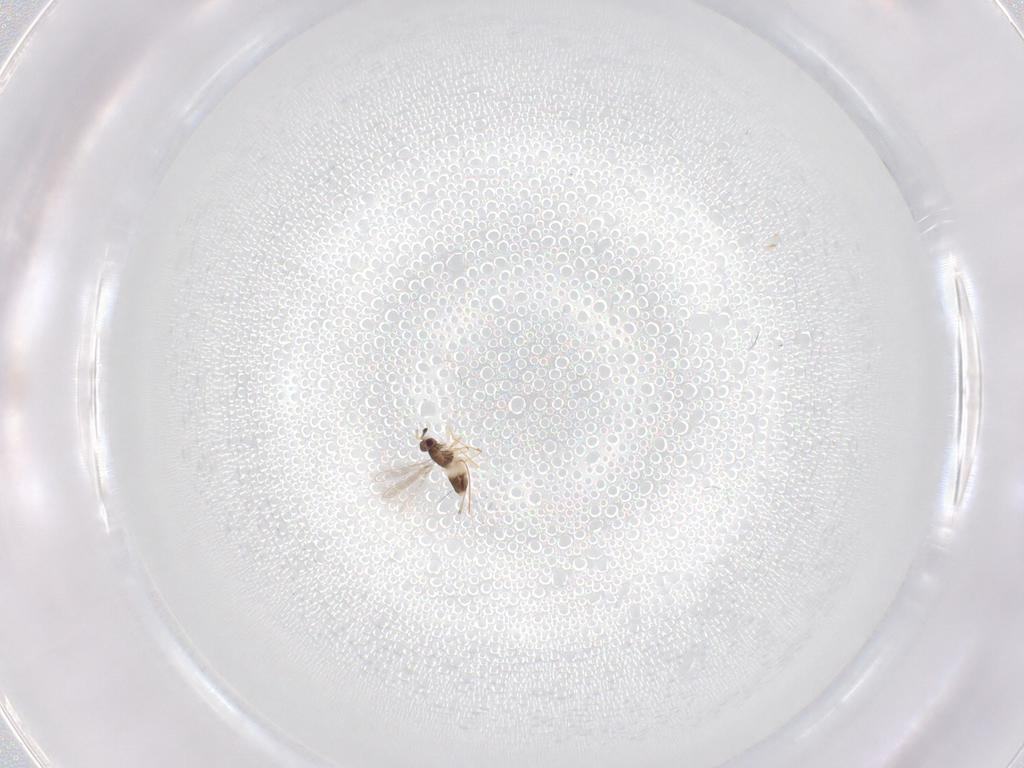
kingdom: Animalia
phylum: Arthropoda
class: Insecta
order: Hymenoptera
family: Mymaridae
